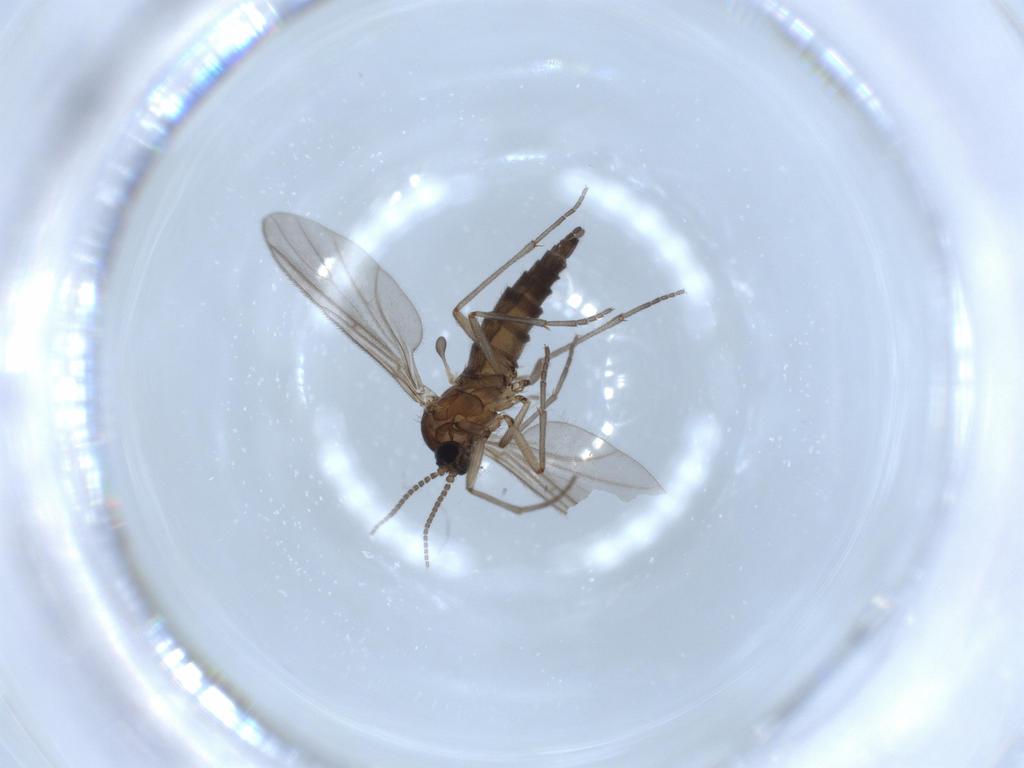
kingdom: Animalia
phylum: Arthropoda
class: Insecta
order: Diptera
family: Sciaridae
